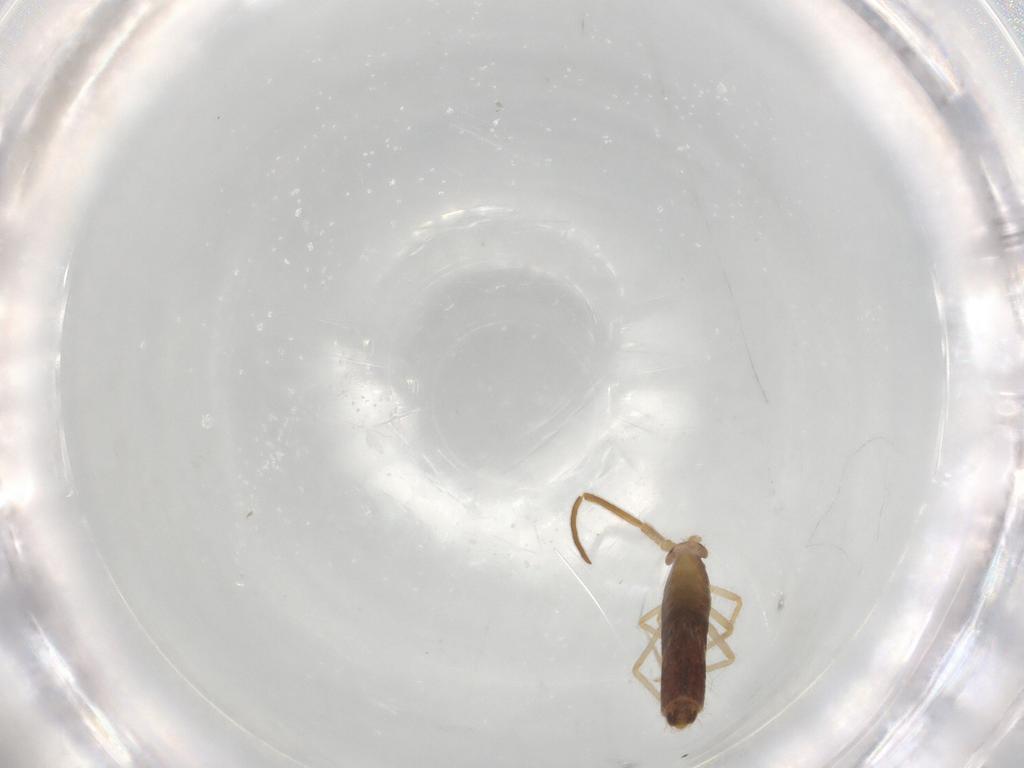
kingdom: Animalia
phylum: Arthropoda
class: Collembola
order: Entomobryomorpha
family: Entomobryidae
